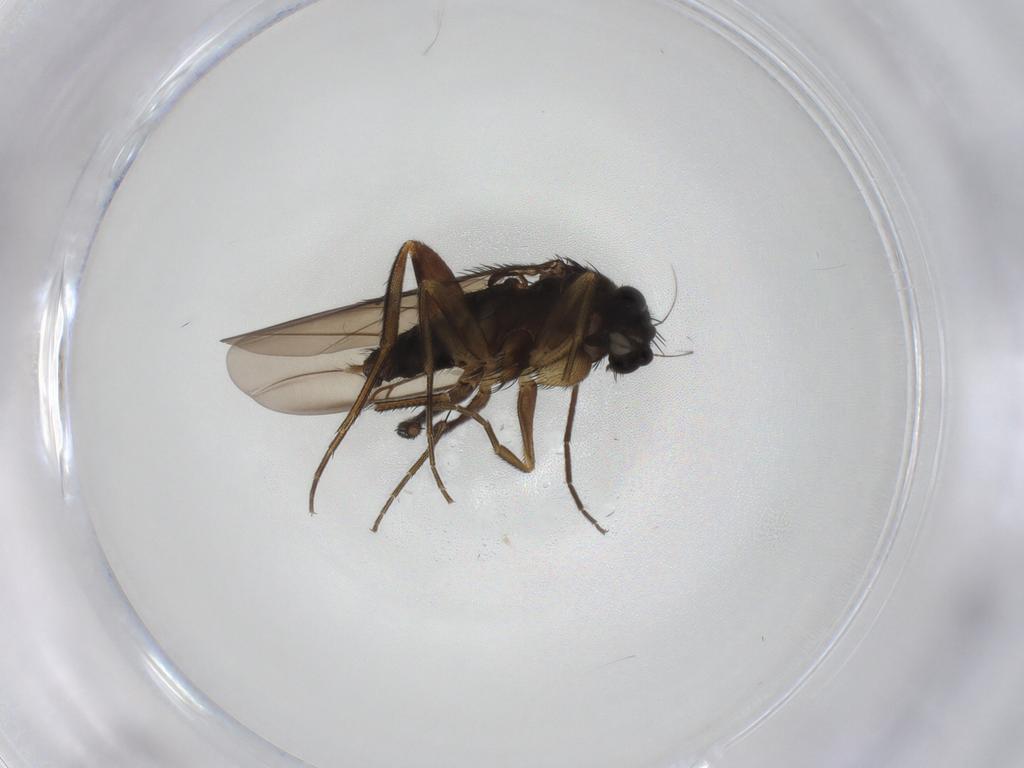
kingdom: Animalia
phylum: Arthropoda
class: Insecta
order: Diptera
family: Phoridae
